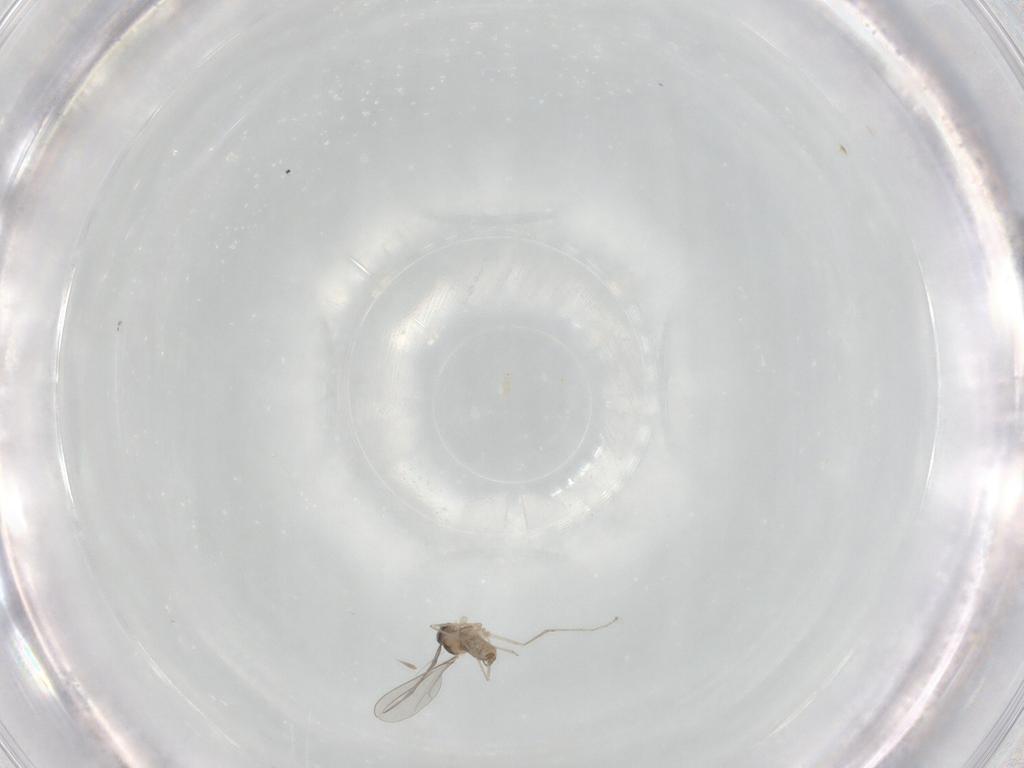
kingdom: Animalia
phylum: Arthropoda
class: Insecta
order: Diptera
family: Cecidomyiidae
